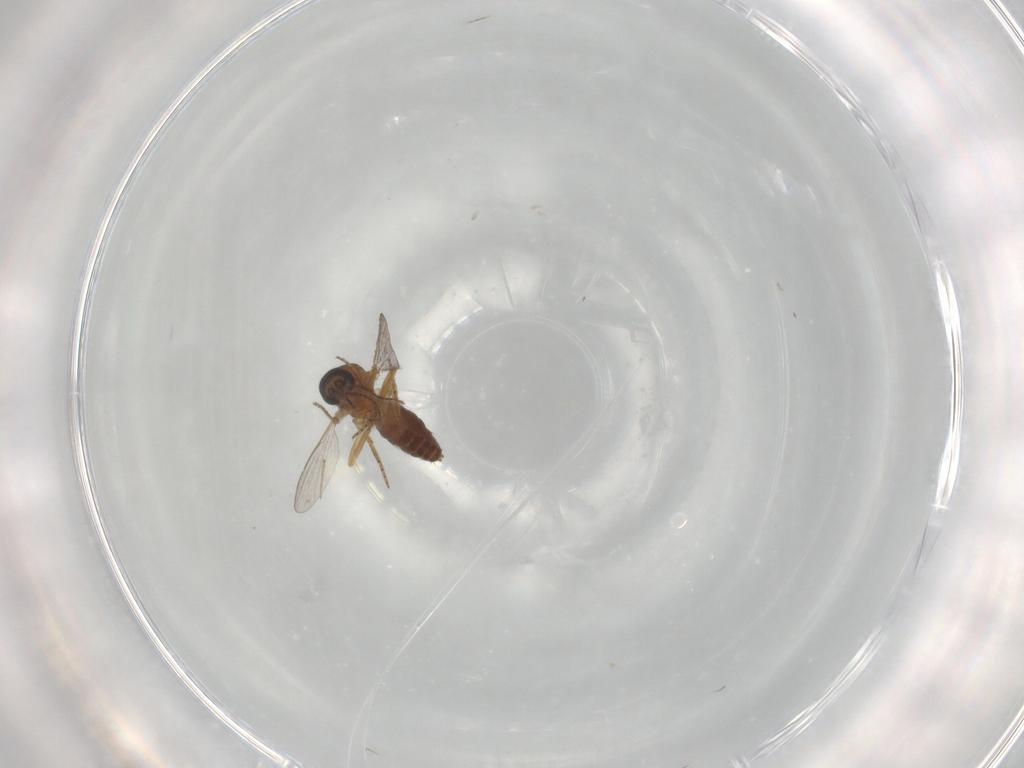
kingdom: Animalia
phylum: Arthropoda
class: Insecta
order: Diptera
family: Ceratopogonidae
